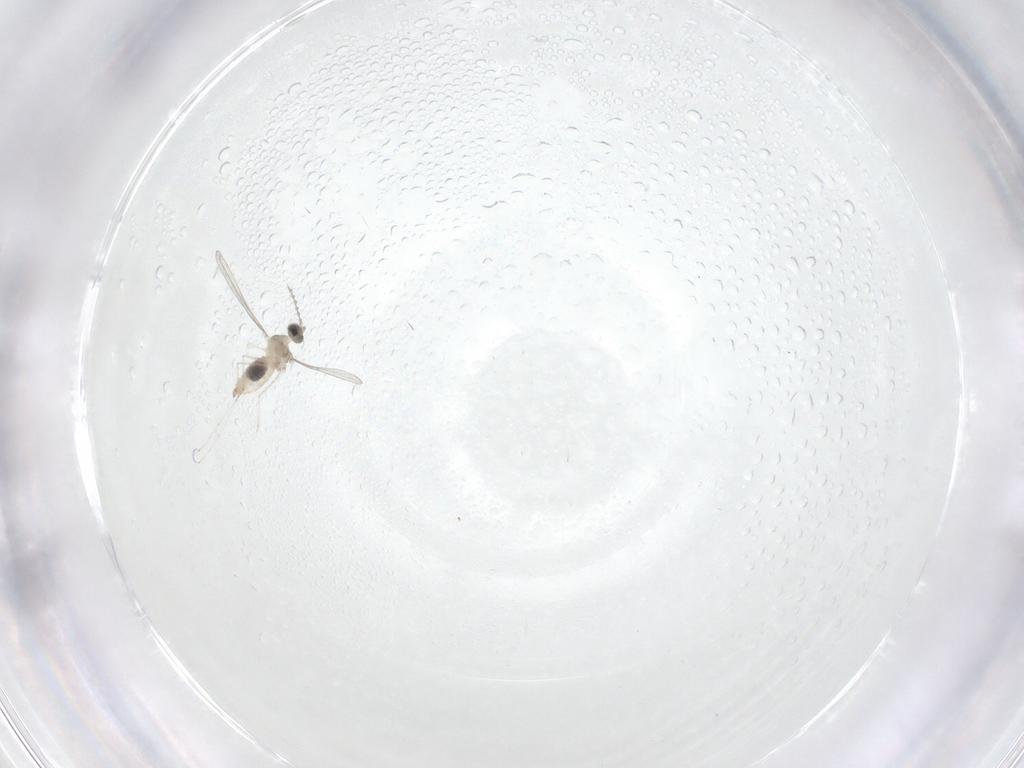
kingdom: Animalia
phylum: Arthropoda
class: Insecta
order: Diptera
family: Cecidomyiidae
